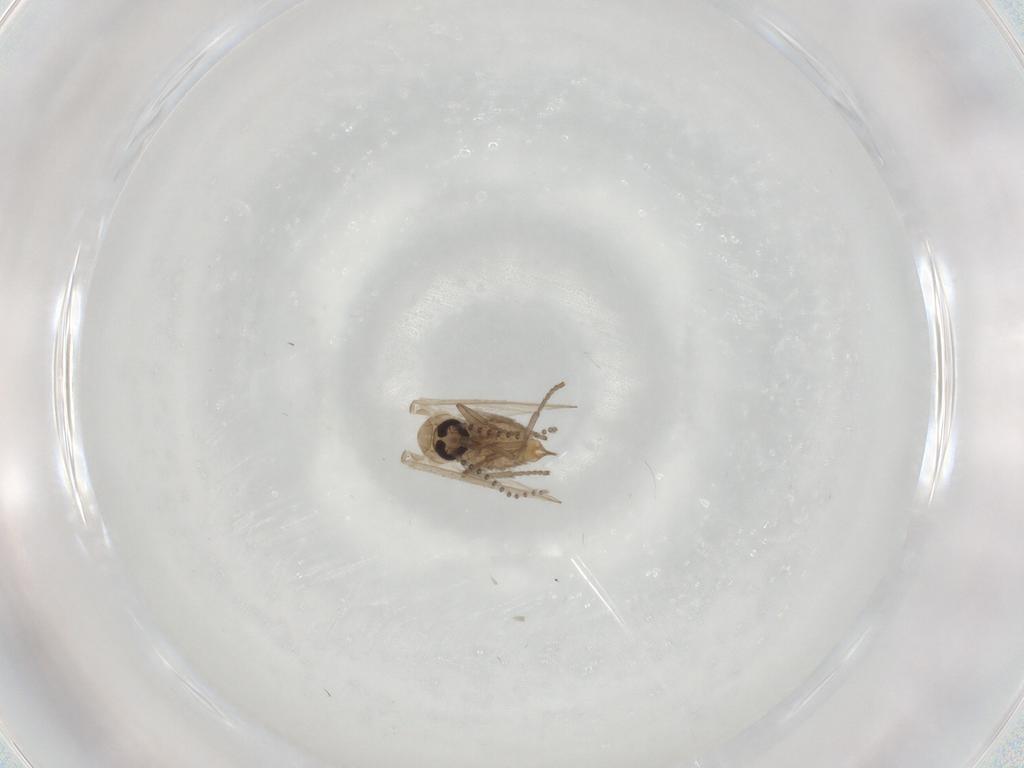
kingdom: Animalia
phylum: Arthropoda
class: Insecta
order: Diptera
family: Psychodidae
